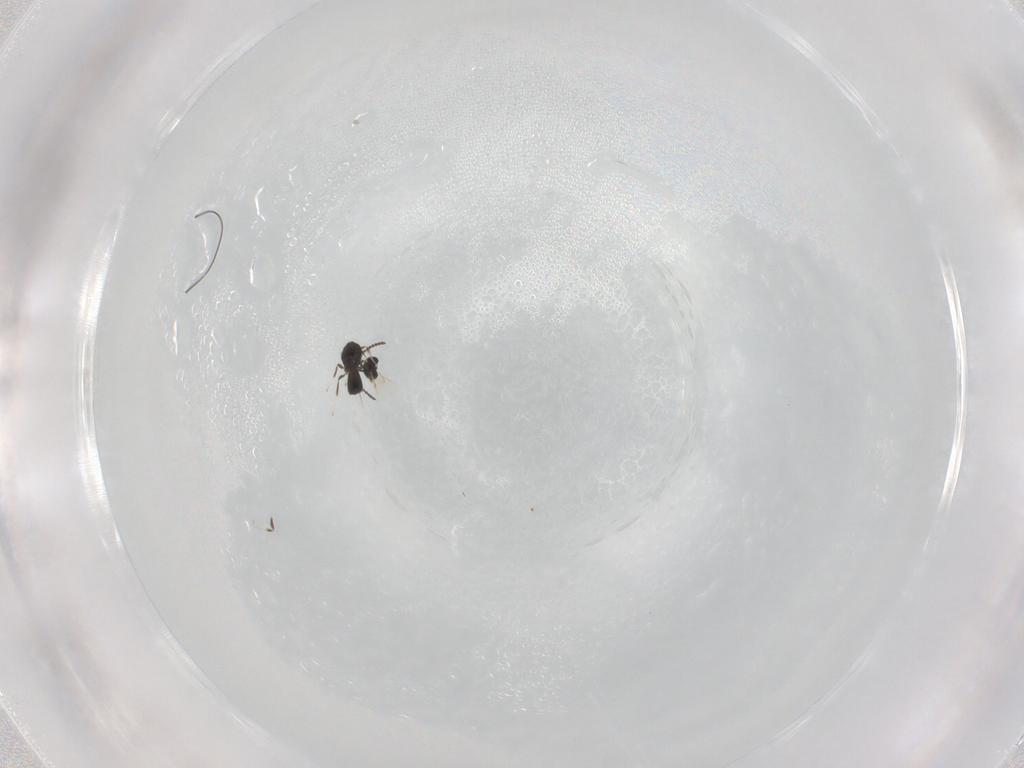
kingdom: Animalia
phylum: Arthropoda
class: Insecta
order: Hymenoptera
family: Scelionidae
